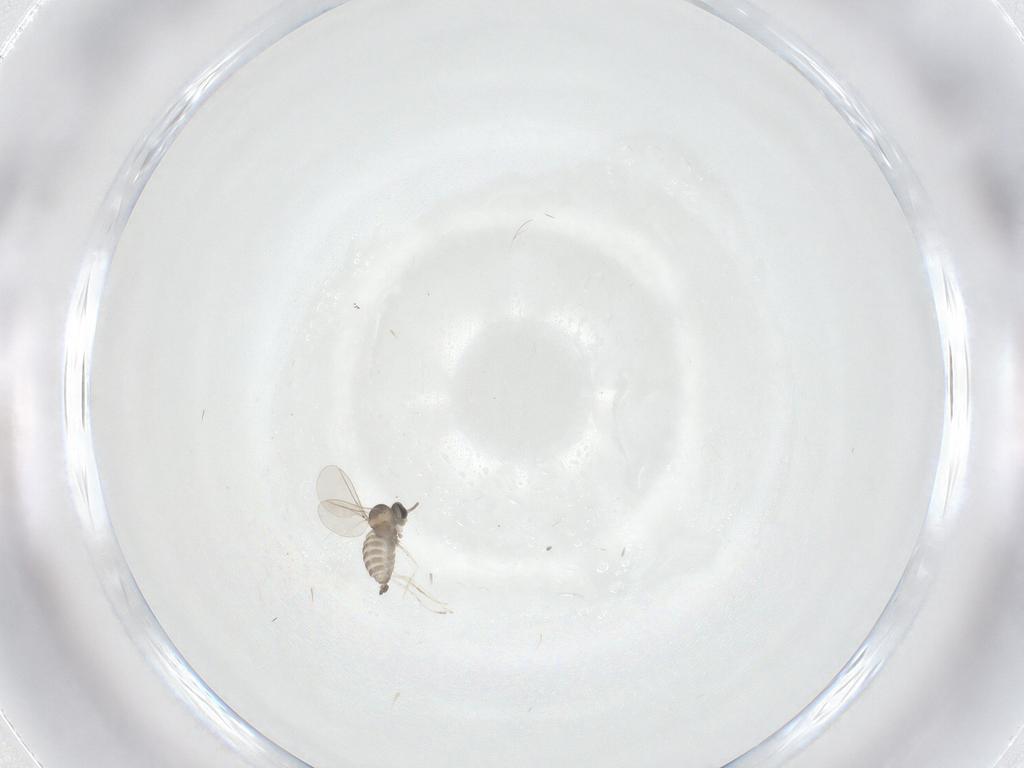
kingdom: Animalia
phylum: Arthropoda
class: Insecta
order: Diptera
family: Cecidomyiidae
